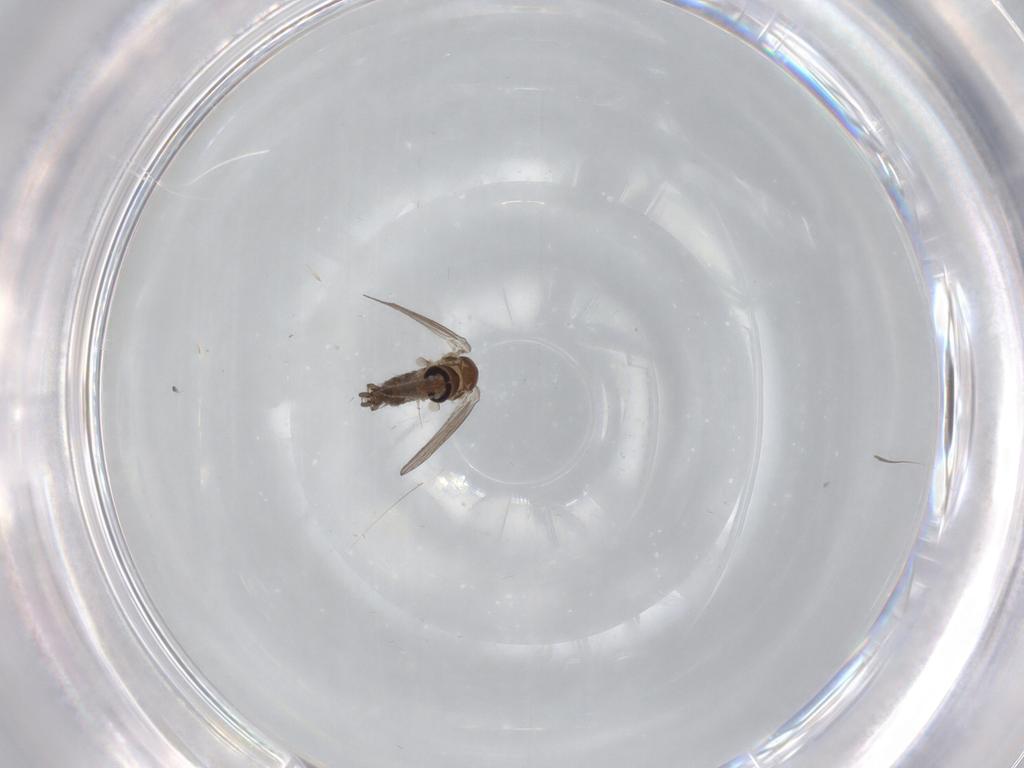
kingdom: Animalia
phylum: Arthropoda
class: Insecta
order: Diptera
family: Psychodidae
